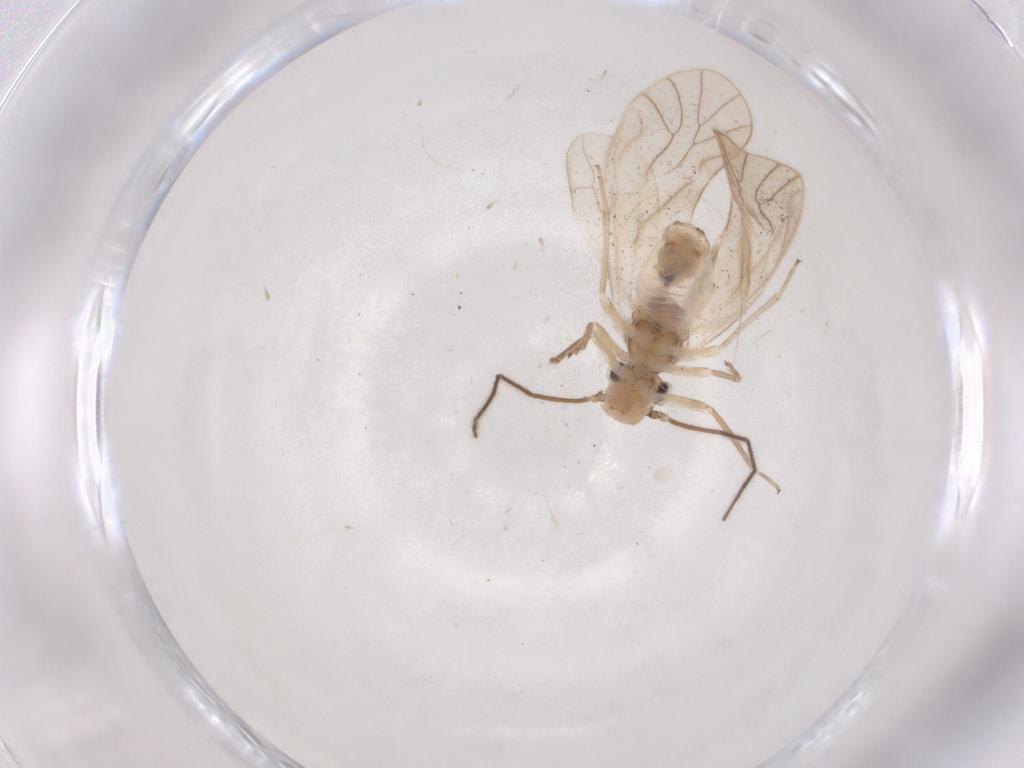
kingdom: Animalia
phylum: Arthropoda
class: Insecta
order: Psocodea
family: Caeciliusidae
